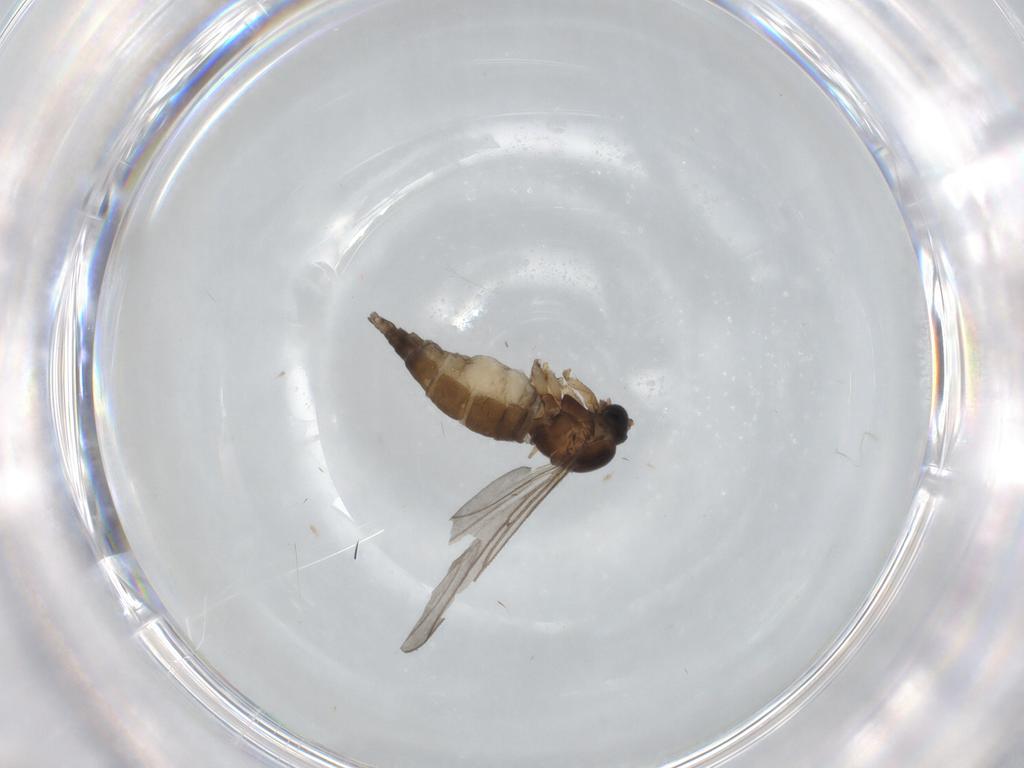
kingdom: Animalia
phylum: Arthropoda
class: Insecta
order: Diptera
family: Sciaridae
